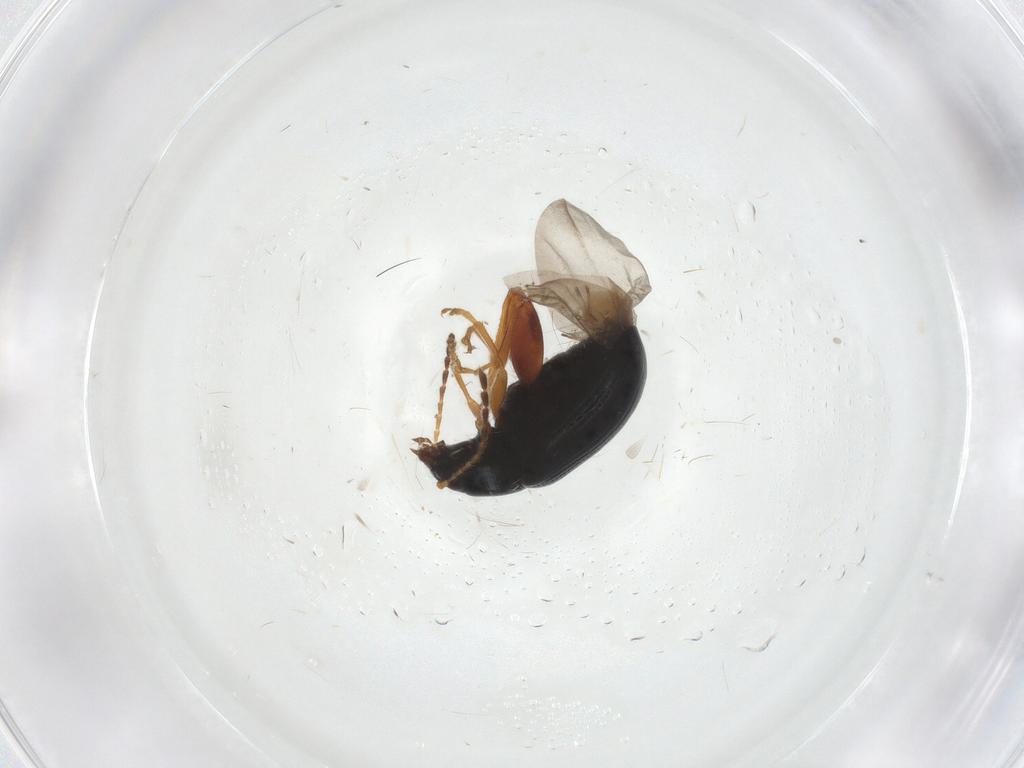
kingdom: Animalia
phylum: Arthropoda
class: Insecta
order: Coleoptera
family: Chrysomelidae
